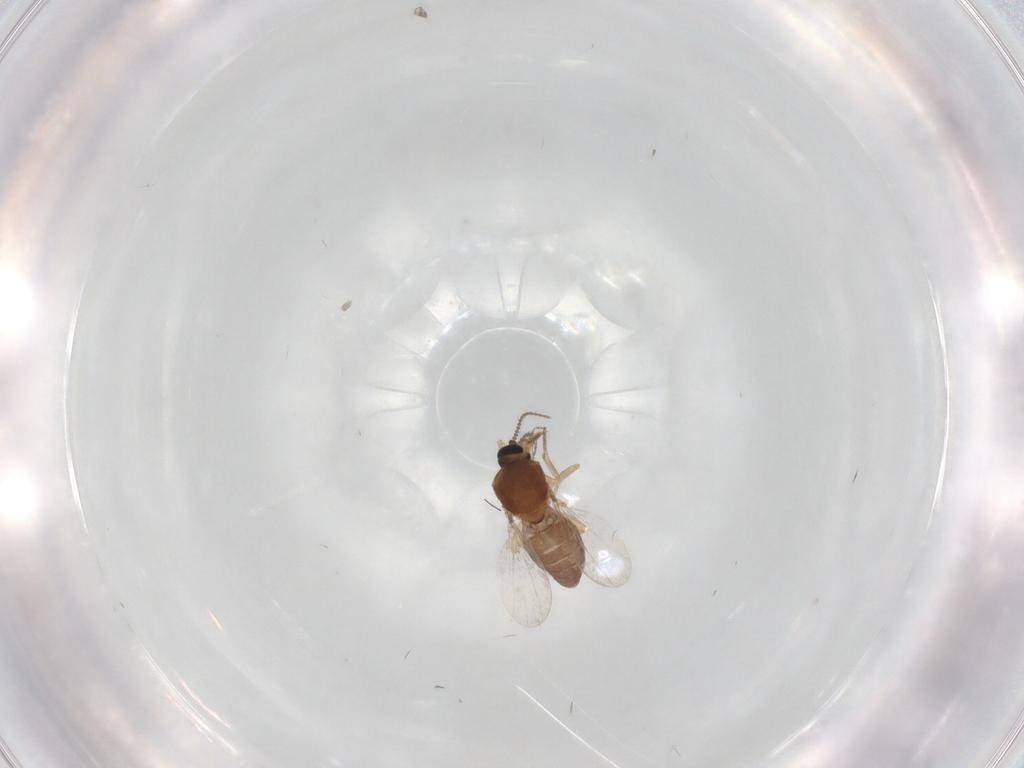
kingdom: Animalia
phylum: Arthropoda
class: Insecta
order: Diptera
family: Ceratopogonidae
